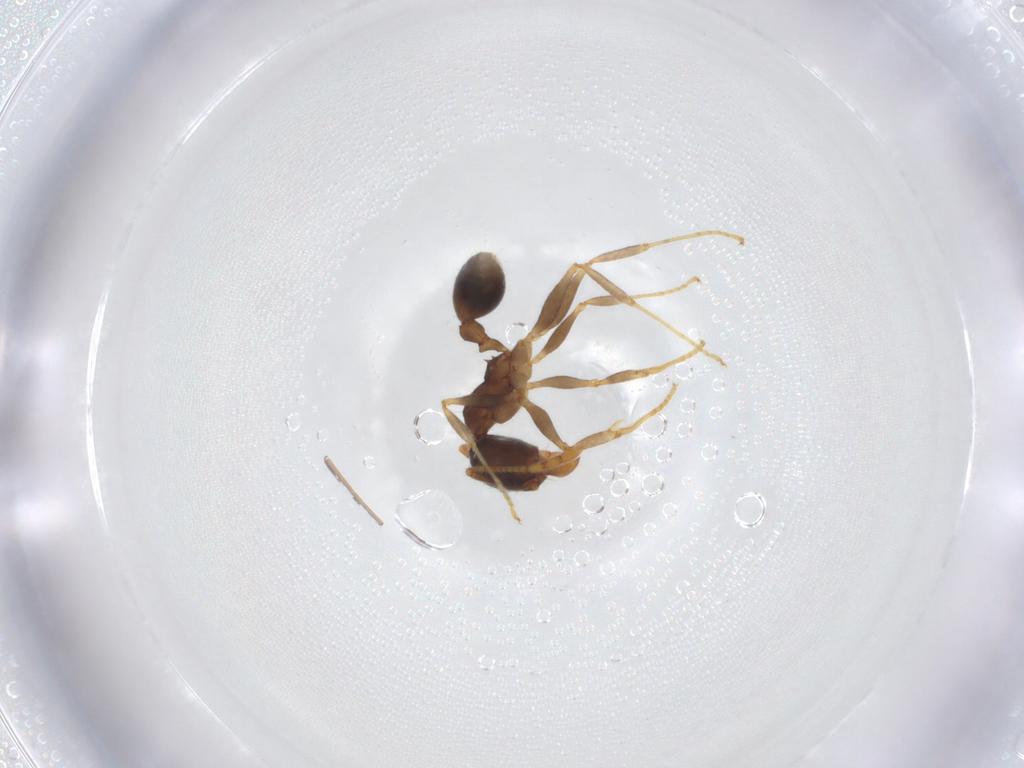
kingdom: Animalia
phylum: Arthropoda
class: Insecta
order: Hymenoptera
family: Formicidae
